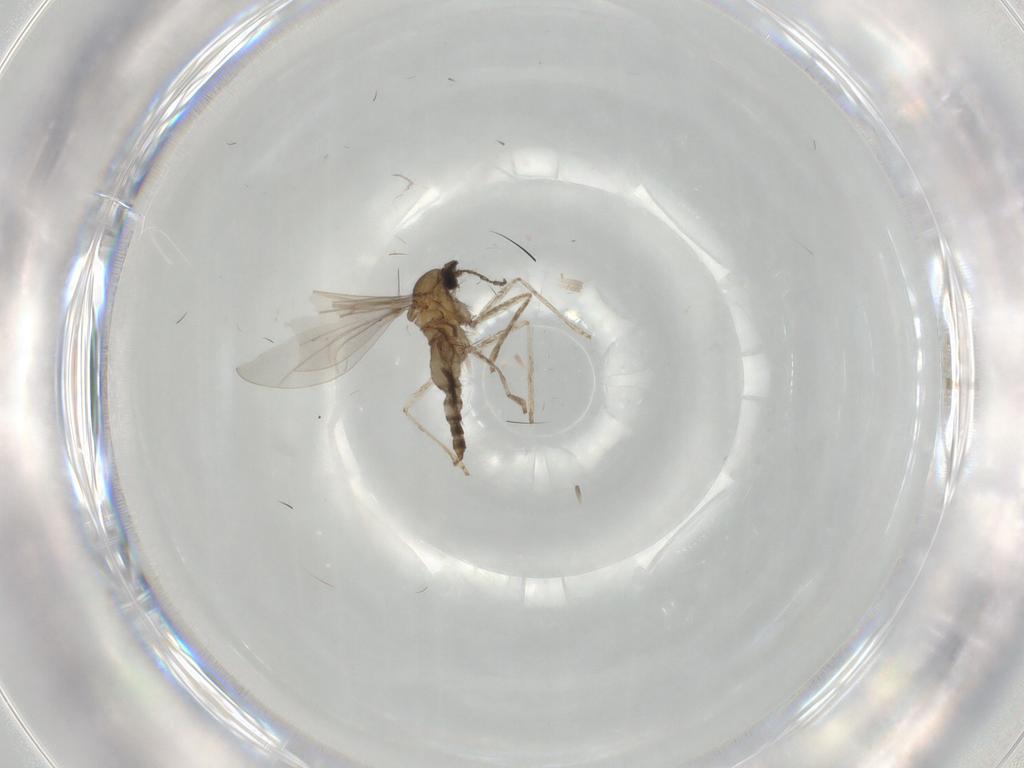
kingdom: Animalia
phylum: Arthropoda
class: Insecta
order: Diptera
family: Cecidomyiidae
